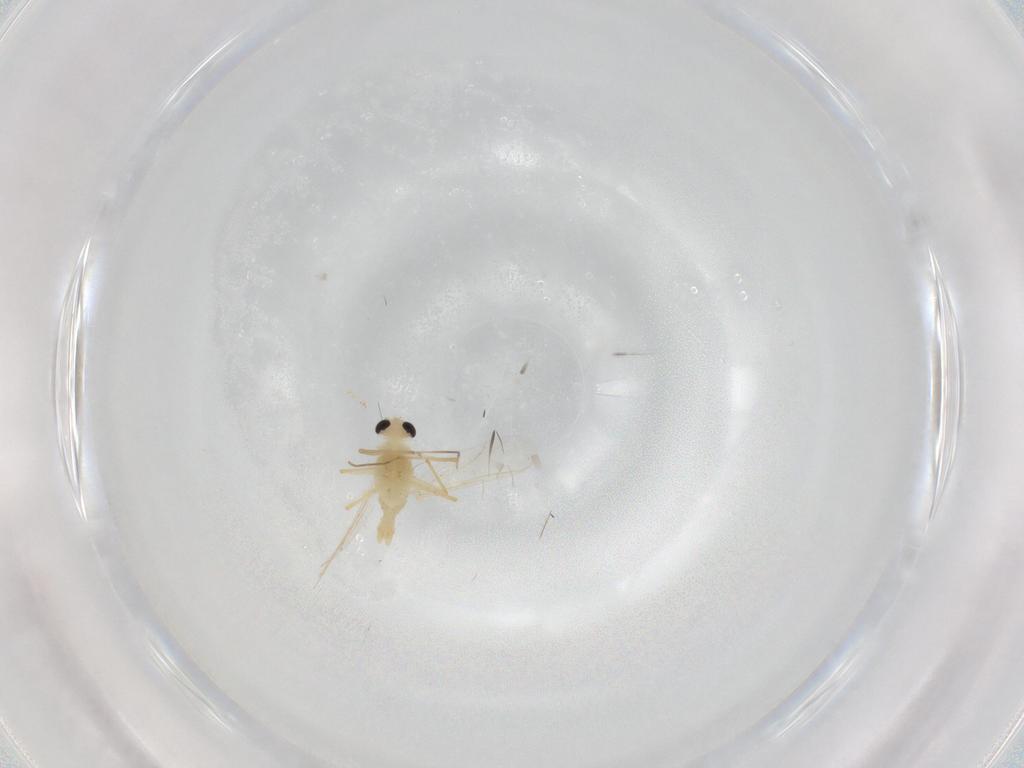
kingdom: Animalia
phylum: Arthropoda
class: Insecta
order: Diptera
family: Chironomidae
